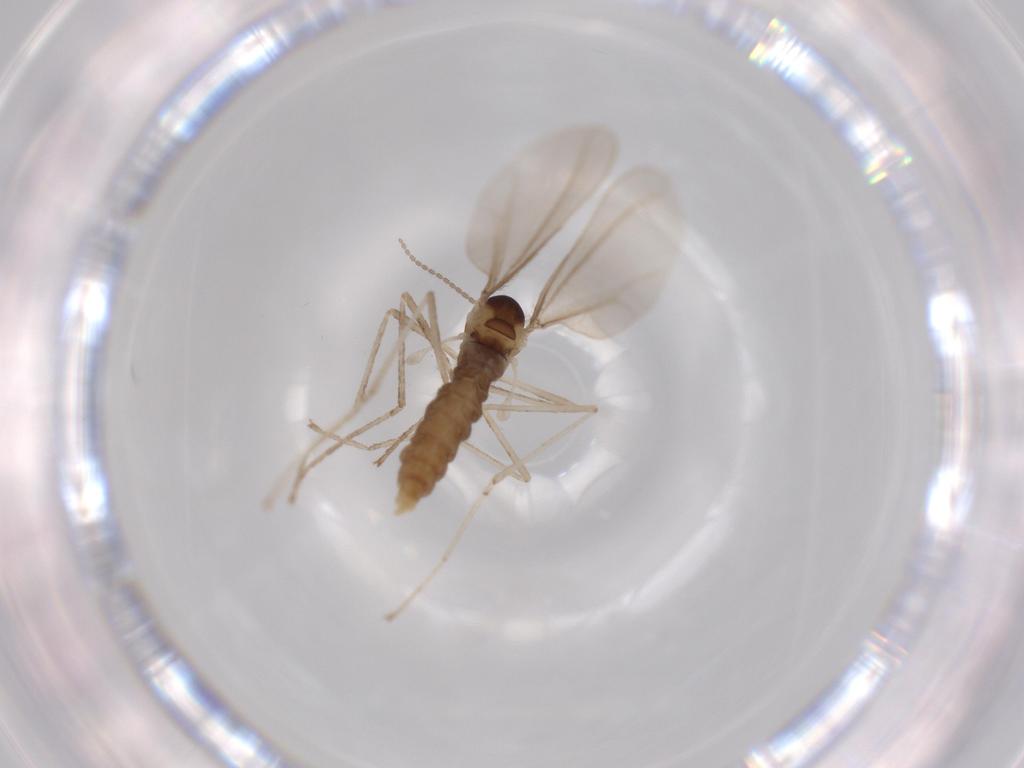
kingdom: Animalia
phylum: Arthropoda
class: Insecta
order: Diptera
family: Cecidomyiidae
